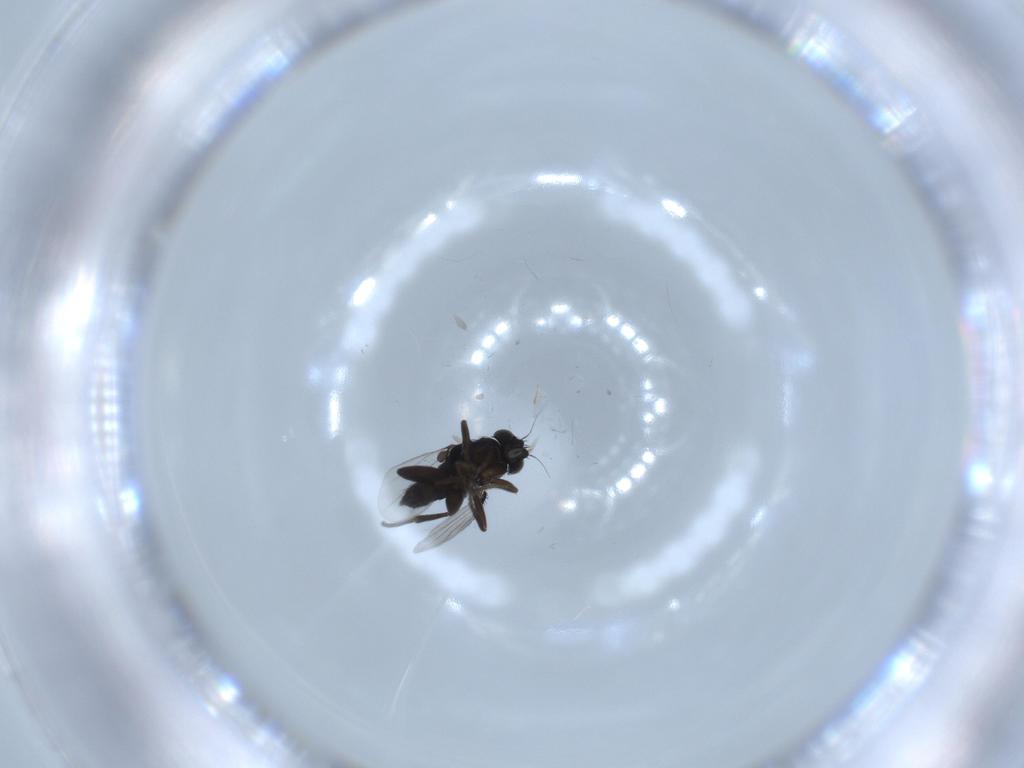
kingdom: Animalia
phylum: Arthropoda
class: Insecta
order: Diptera
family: Phoridae
